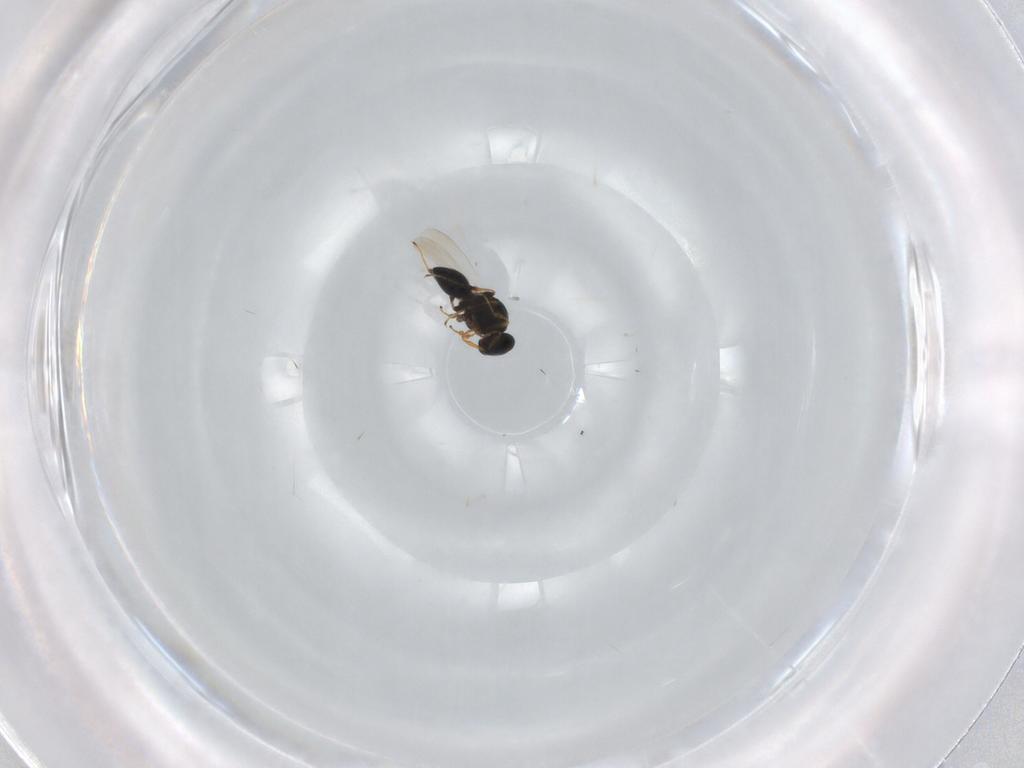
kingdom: Animalia
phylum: Arthropoda
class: Insecta
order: Hymenoptera
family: Platygastridae
